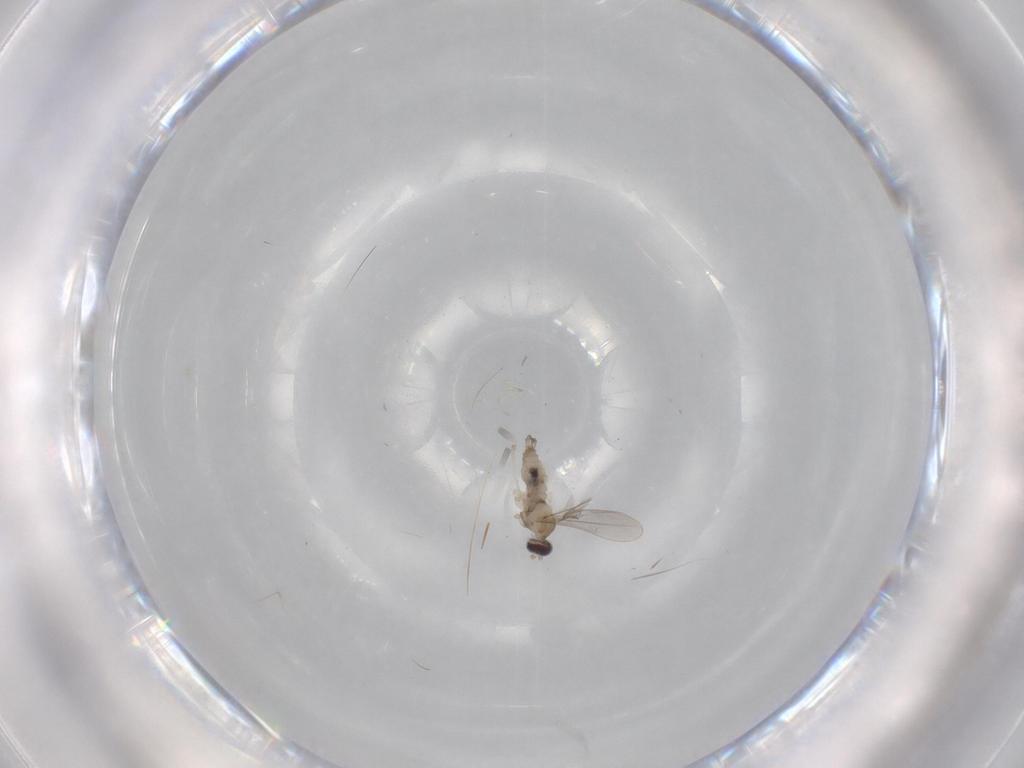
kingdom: Animalia
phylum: Arthropoda
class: Insecta
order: Diptera
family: Cecidomyiidae
